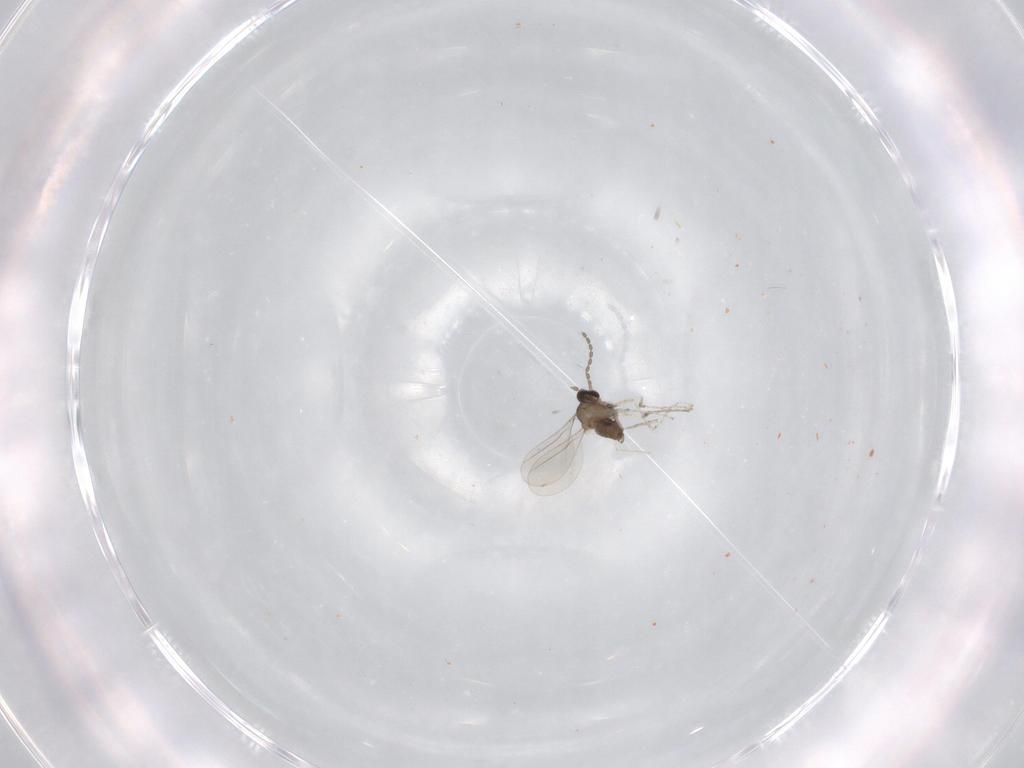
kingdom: Animalia
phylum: Arthropoda
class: Insecta
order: Diptera
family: Cecidomyiidae
